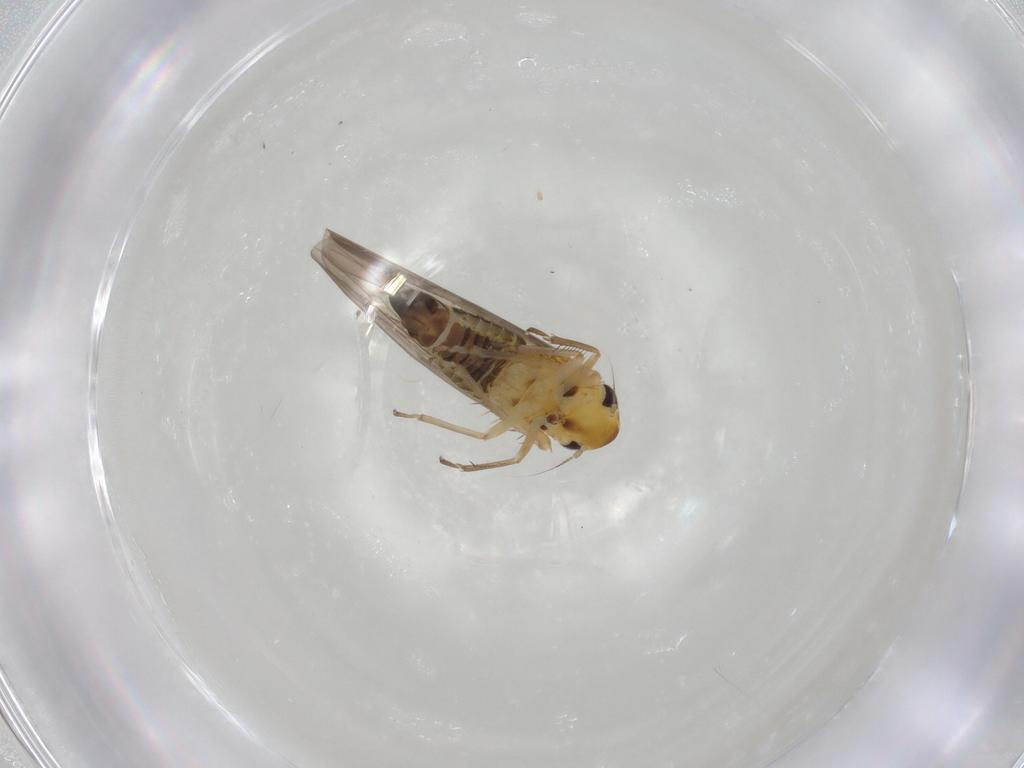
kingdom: Animalia
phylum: Arthropoda
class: Insecta
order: Hemiptera
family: Cicadellidae
